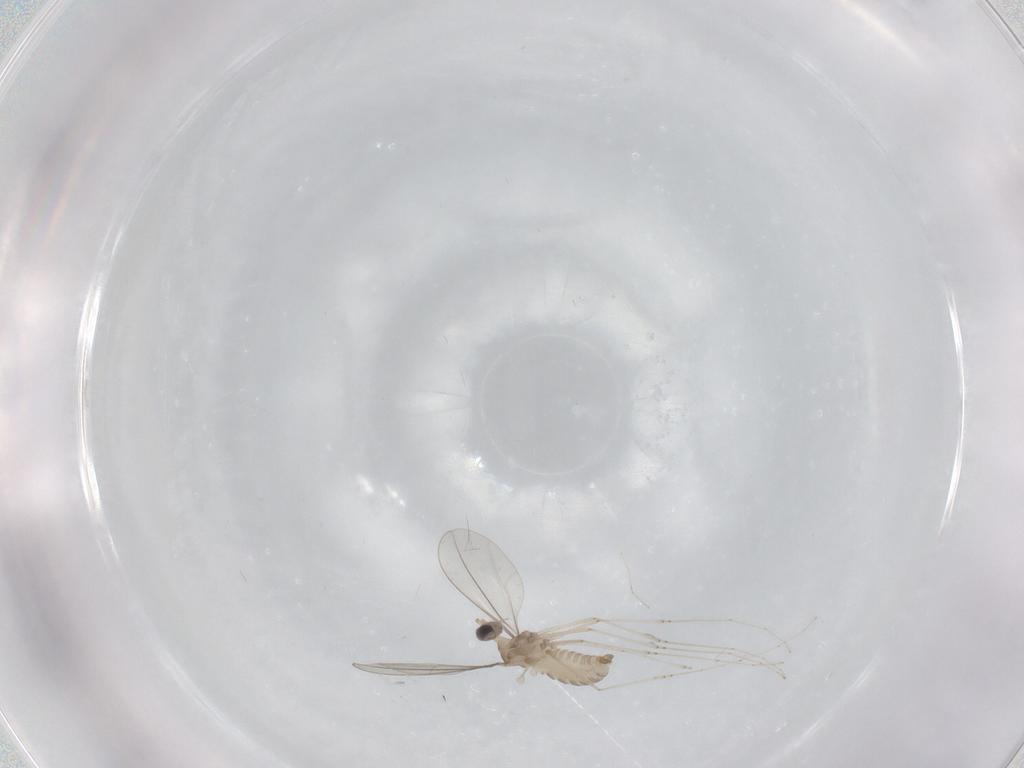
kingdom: Animalia
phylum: Arthropoda
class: Insecta
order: Diptera
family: Cecidomyiidae
